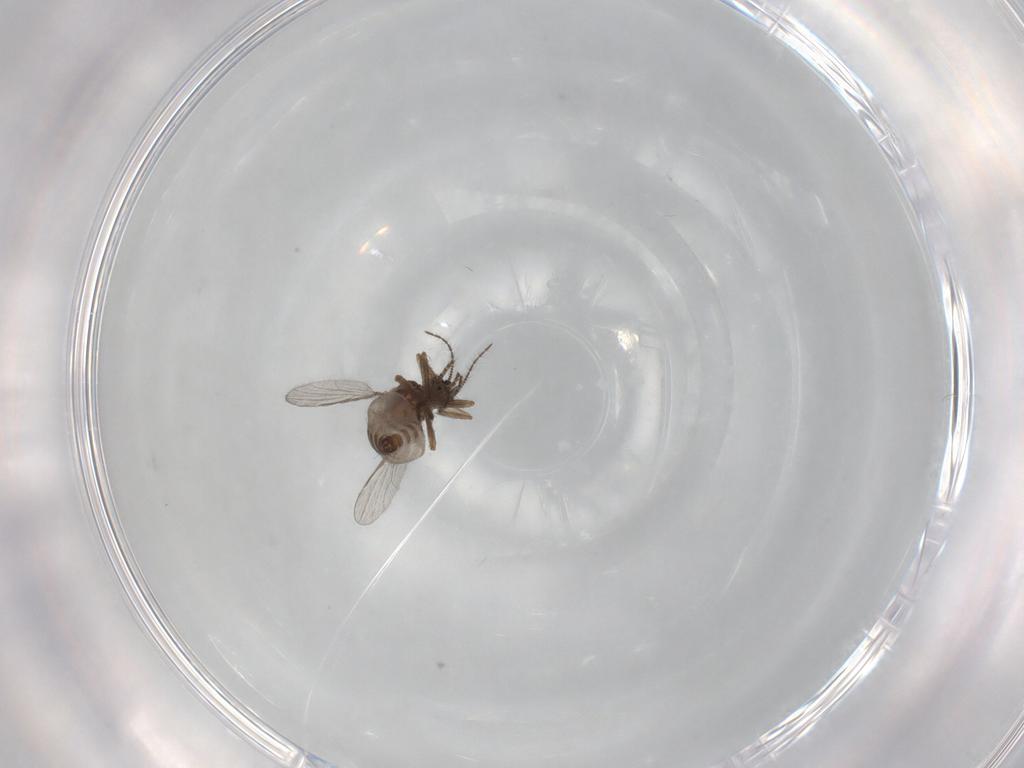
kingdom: Animalia
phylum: Arthropoda
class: Insecta
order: Diptera
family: Ceratopogonidae
